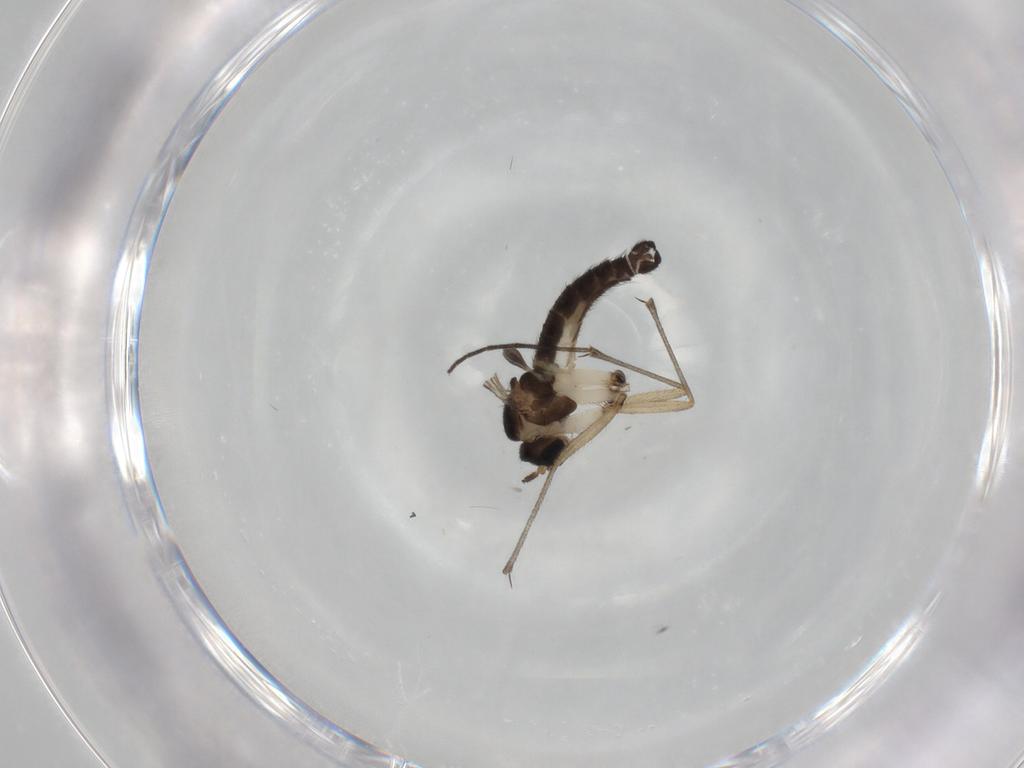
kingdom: Animalia
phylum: Arthropoda
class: Insecta
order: Diptera
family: Sciaridae
